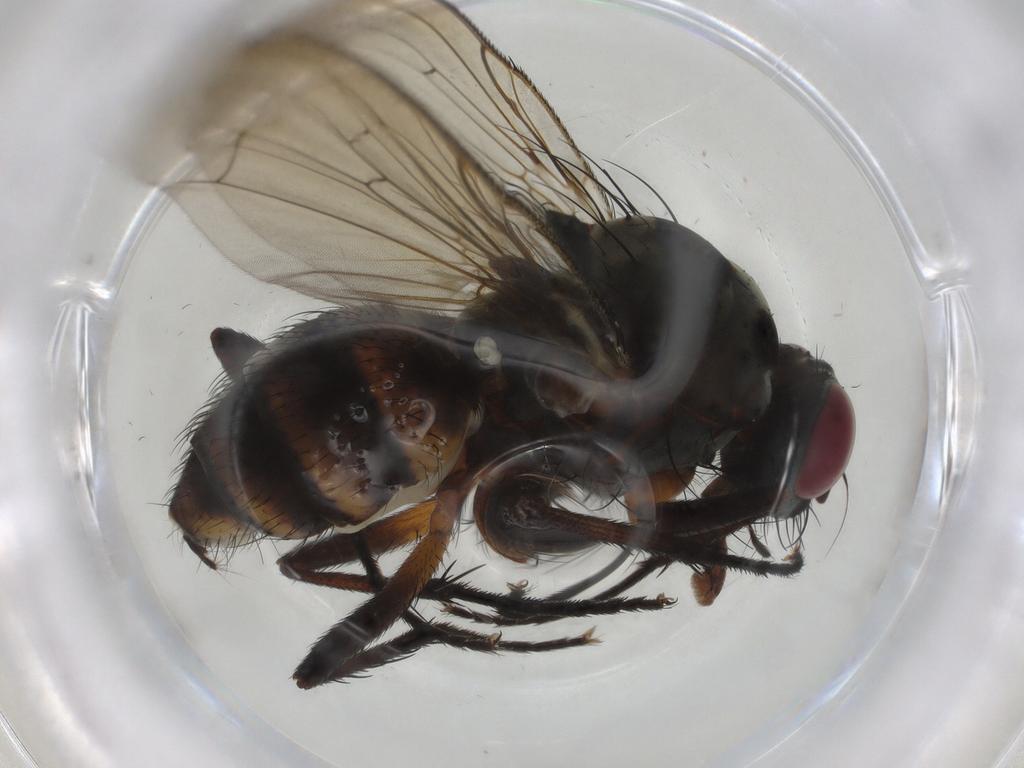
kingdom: Animalia
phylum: Arthropoda
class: Insecta
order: Diptera
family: Anthomyiidae
